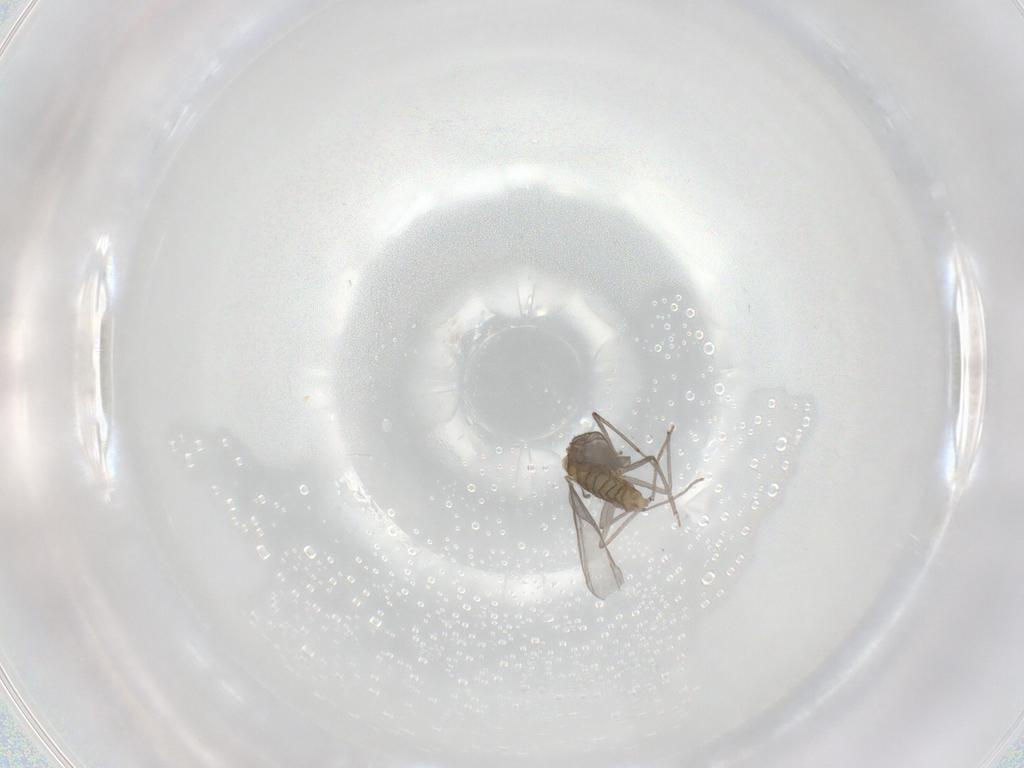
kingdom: Animalia
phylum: Arthropoda
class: Insecta
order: Diptera
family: Chironomidae
